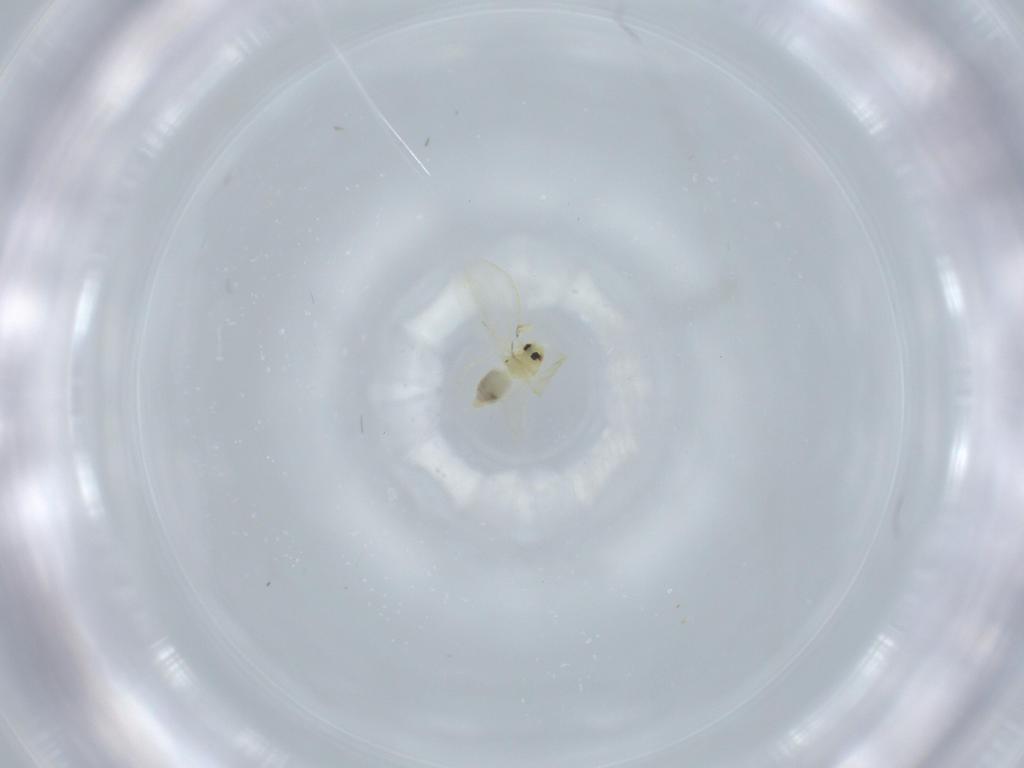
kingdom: Animalia
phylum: Arthropoda
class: Insecta
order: Hemiptera
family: Aleyrodidae
